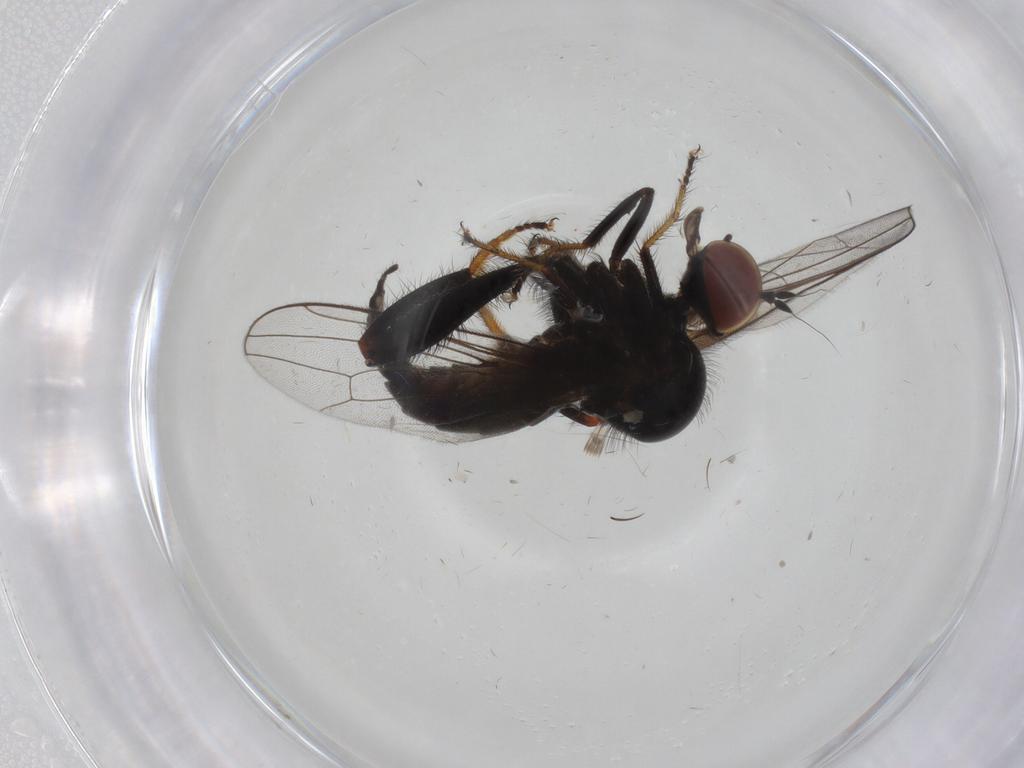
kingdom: Animalia
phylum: Arthropoda
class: Insecta
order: Diptera
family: Hybotidae
